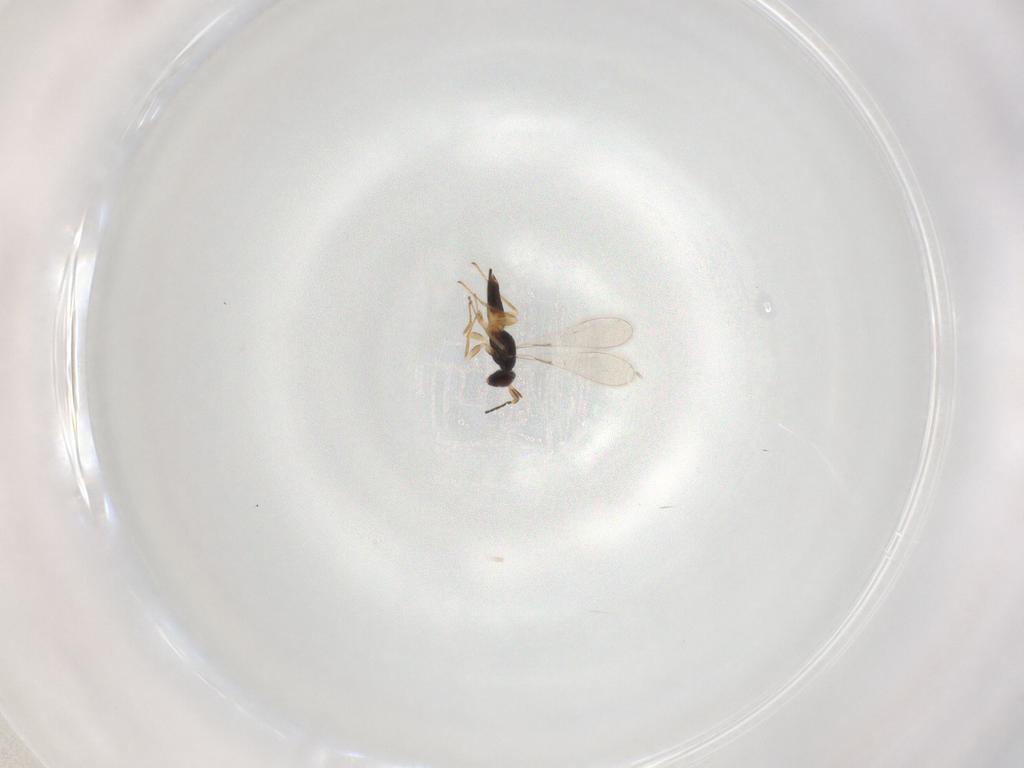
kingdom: Animalia
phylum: Arthropoda
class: Insecta
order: Hymenoptera
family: Mymaridae
